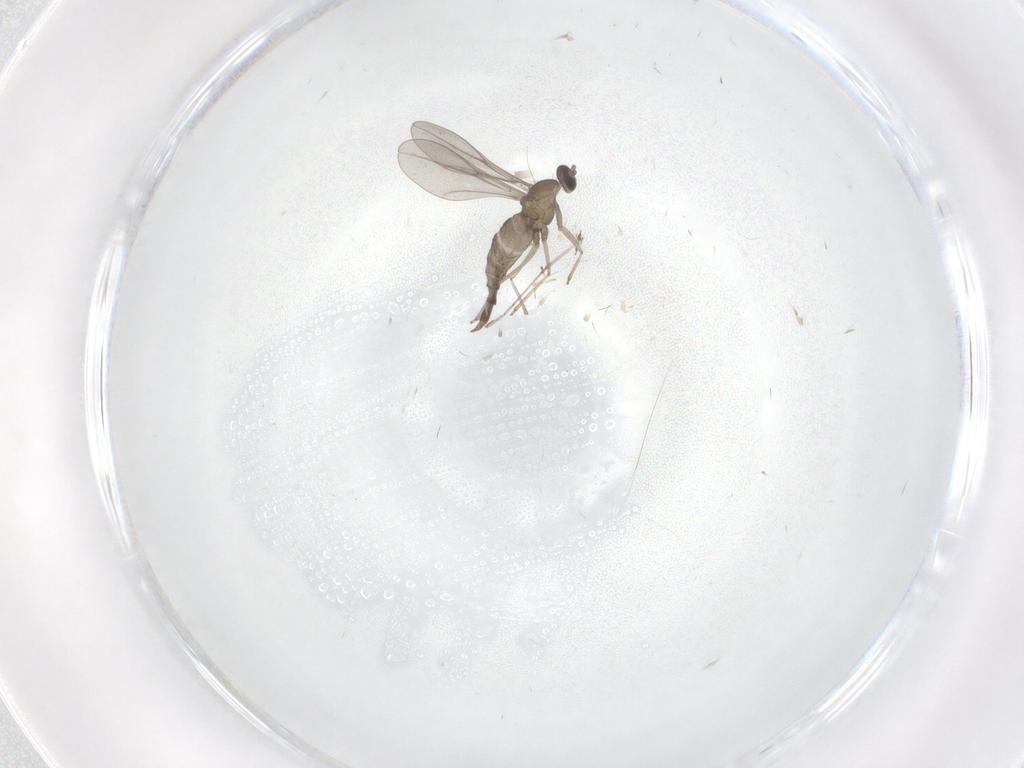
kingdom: Animalia
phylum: Arthropoda
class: Insecta
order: Diptera
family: Cecidomyiidae
